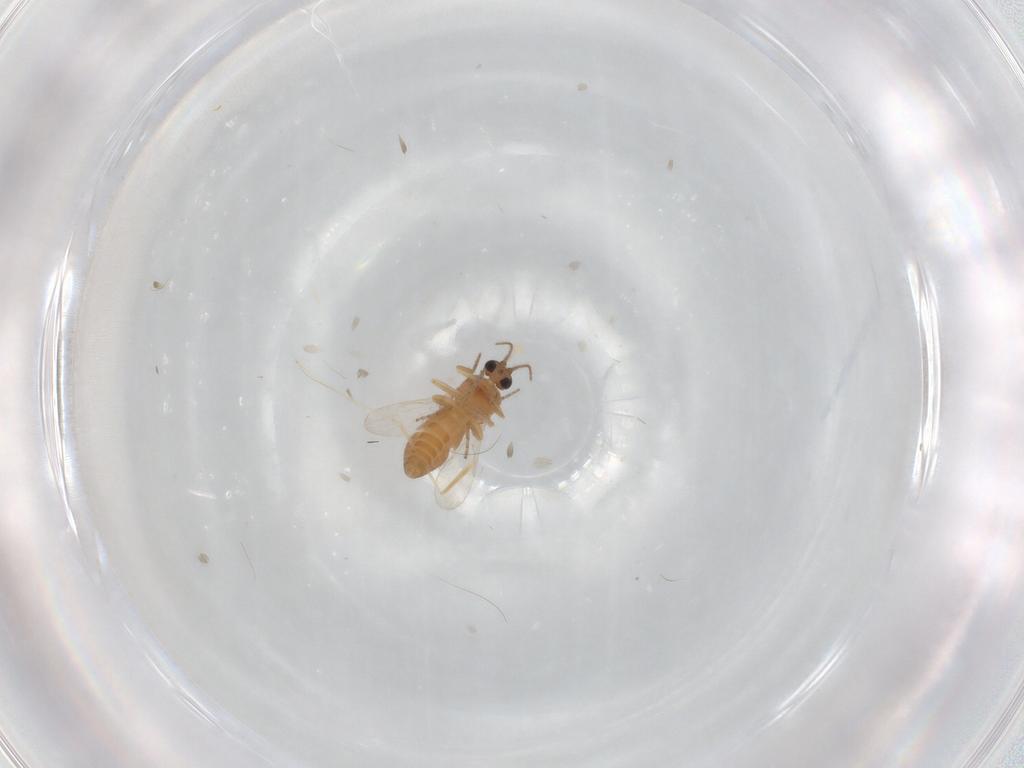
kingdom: Animalia
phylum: Arthropoda
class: Insecta
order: Diptera
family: Ceratopogonidae
